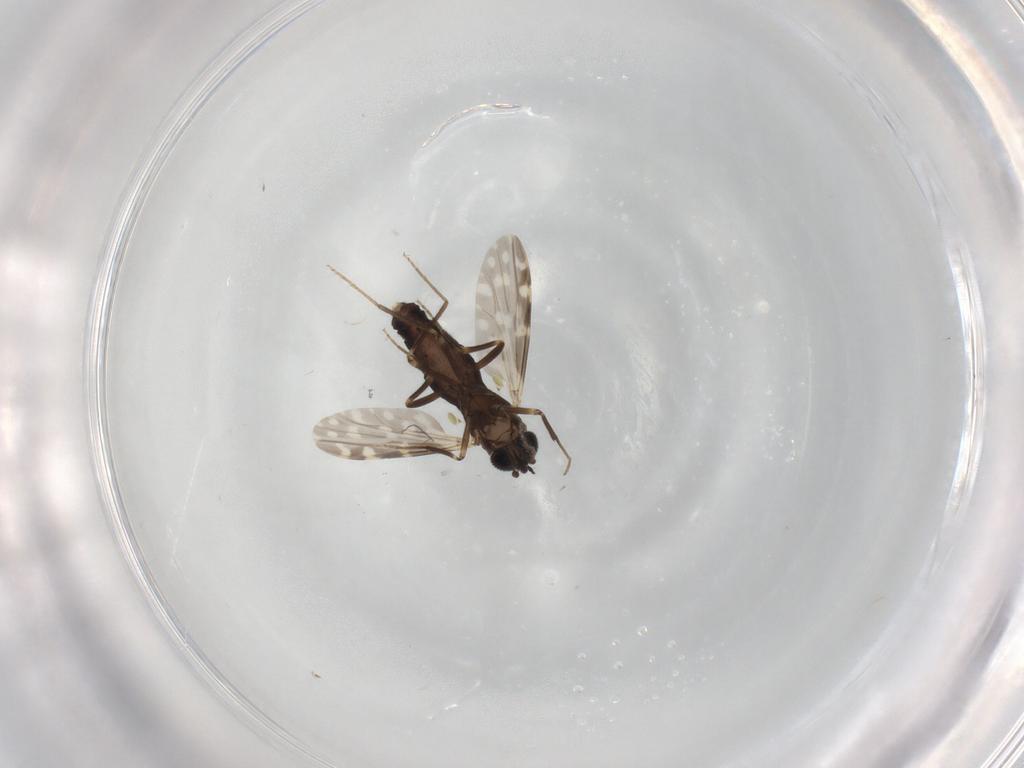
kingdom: Animalia
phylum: Arthropoda
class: Insecta
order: Diptera
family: Ceratopogonidae
